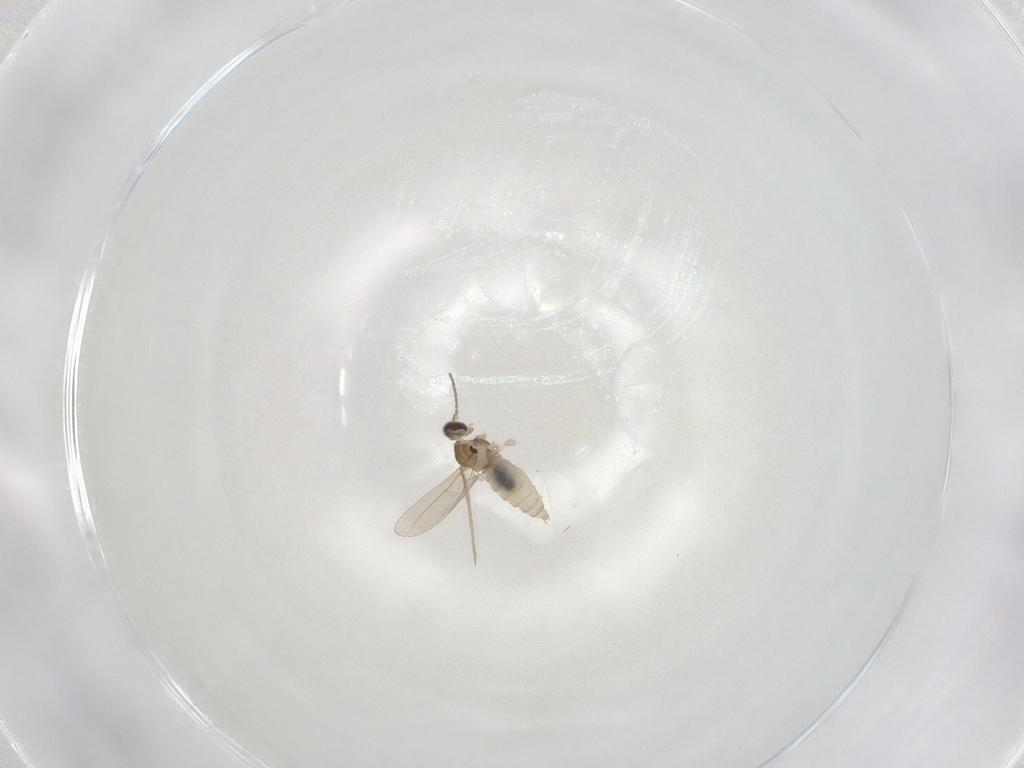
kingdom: Animalia
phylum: Arthropoda
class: Insecta
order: Diptera
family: Cecidomyiidae
